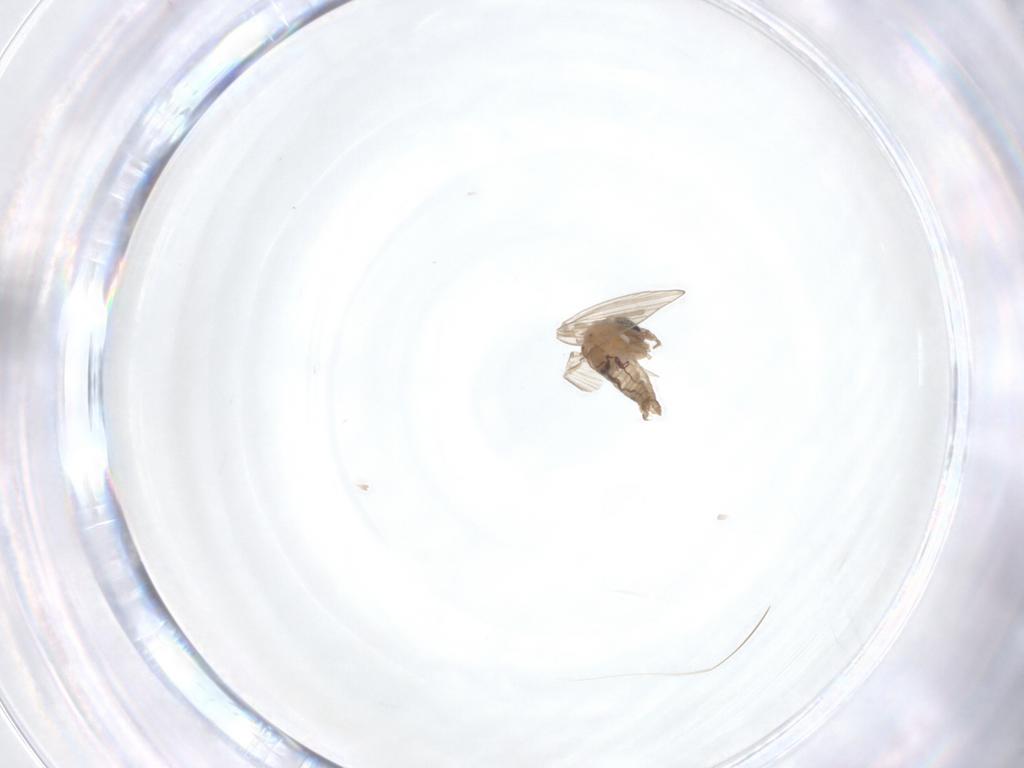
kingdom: Animalia
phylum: Arthropoda
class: Insecta
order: Diptera
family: Psychodidae
